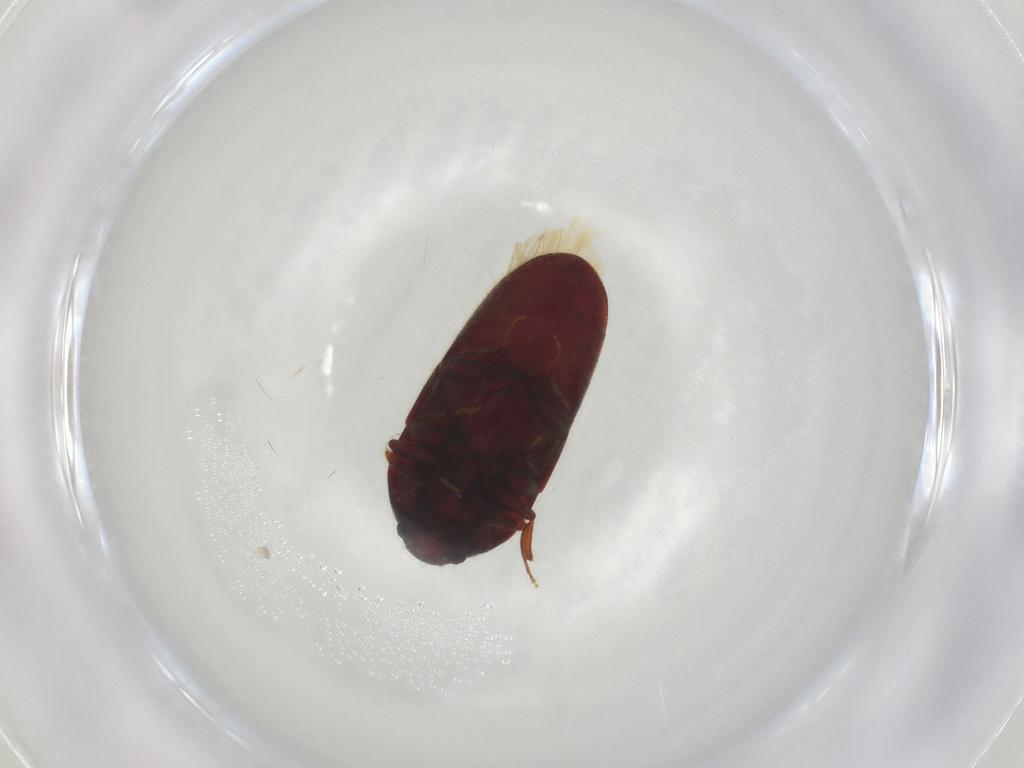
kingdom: Animalia
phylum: Arthropoda
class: Insecta
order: Coleoptera
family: Throscidae
